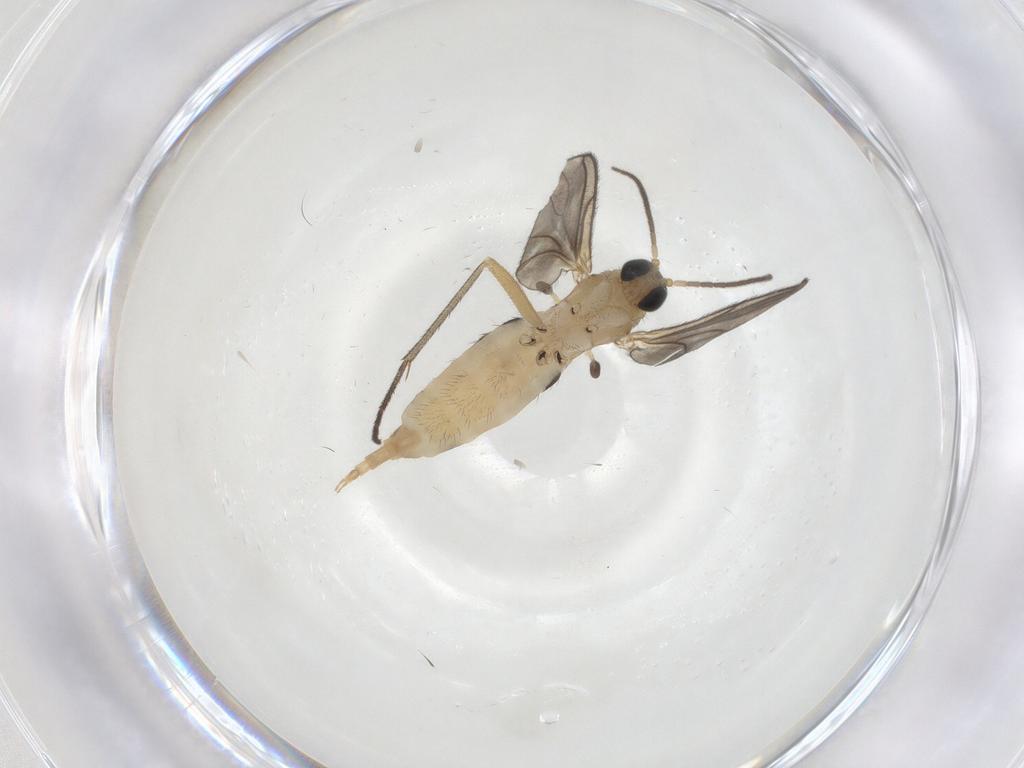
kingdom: Animalia
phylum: Arthropoda
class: Insecta
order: Diptera
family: Sciaridae
